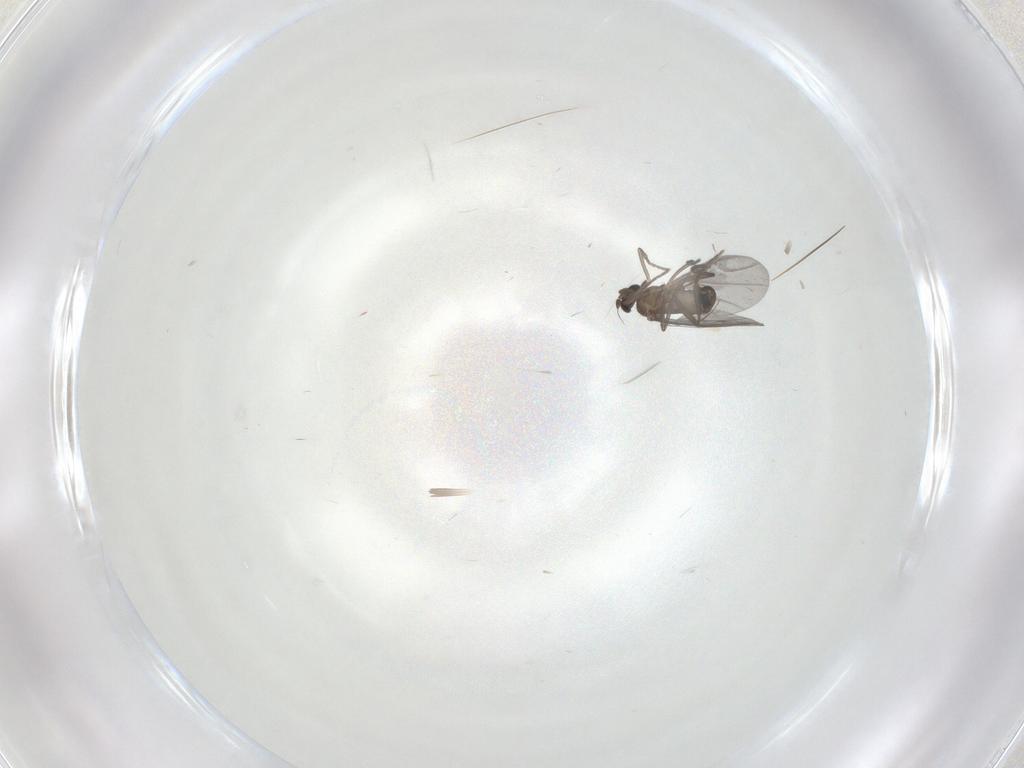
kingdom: Animalia
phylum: Arthropoda
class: Insecta
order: Diptera
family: Phoridae
